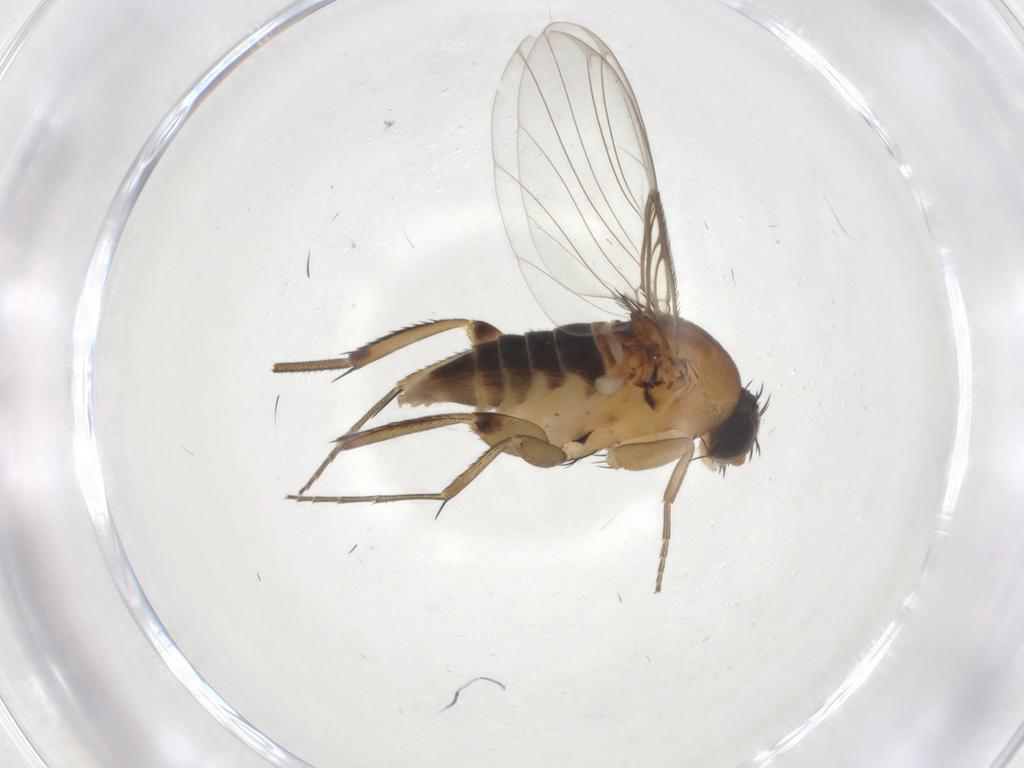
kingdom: Animalia
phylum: Arthropoda
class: Insecta
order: Diptera
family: Phoridae
